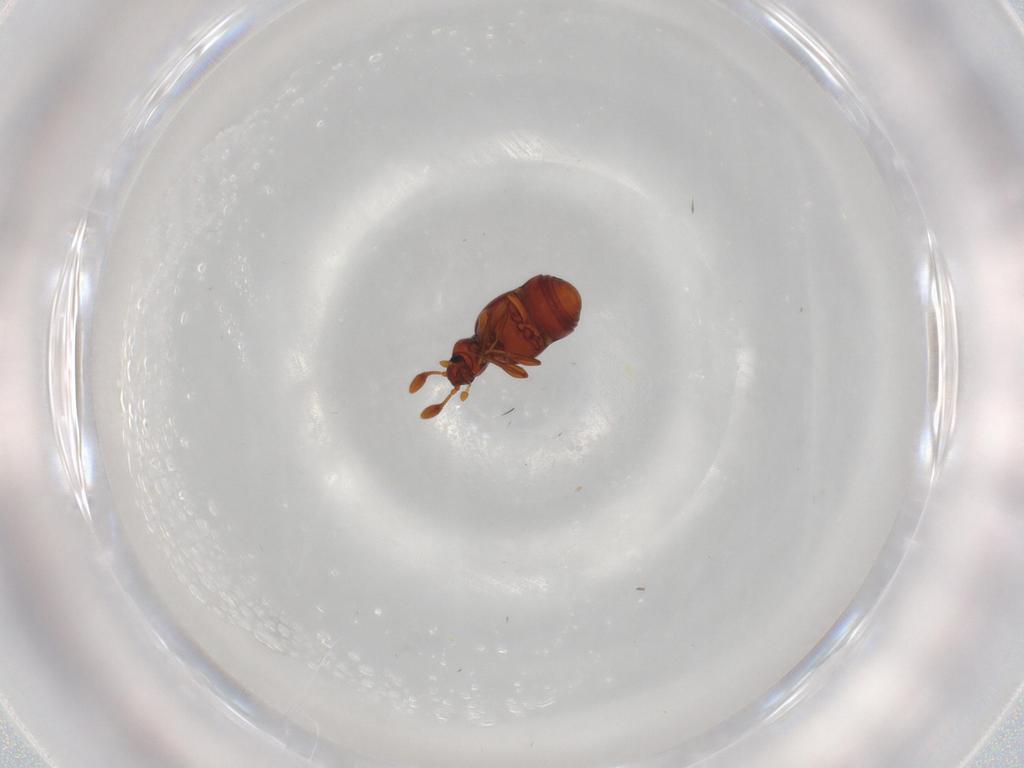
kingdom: Animalia
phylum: Arthropoda
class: Insecta
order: Coleoptera
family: Staphylinidae
